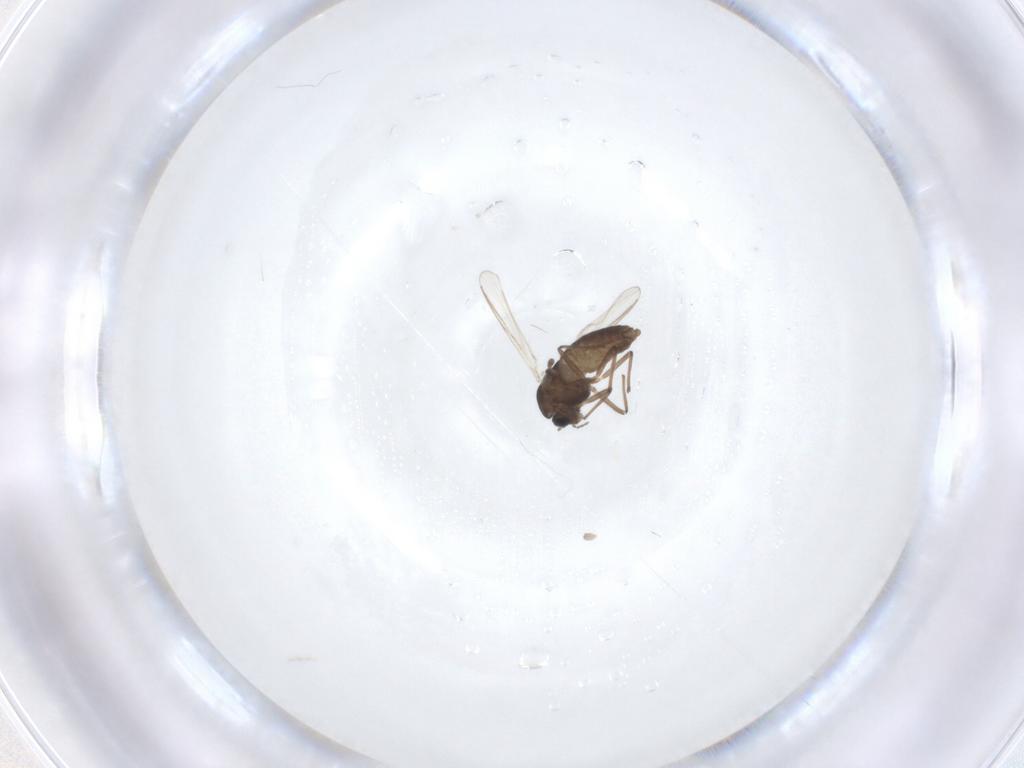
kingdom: Animalia
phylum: Arthropoda
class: Insecta
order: Diptera
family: Chironomidae
